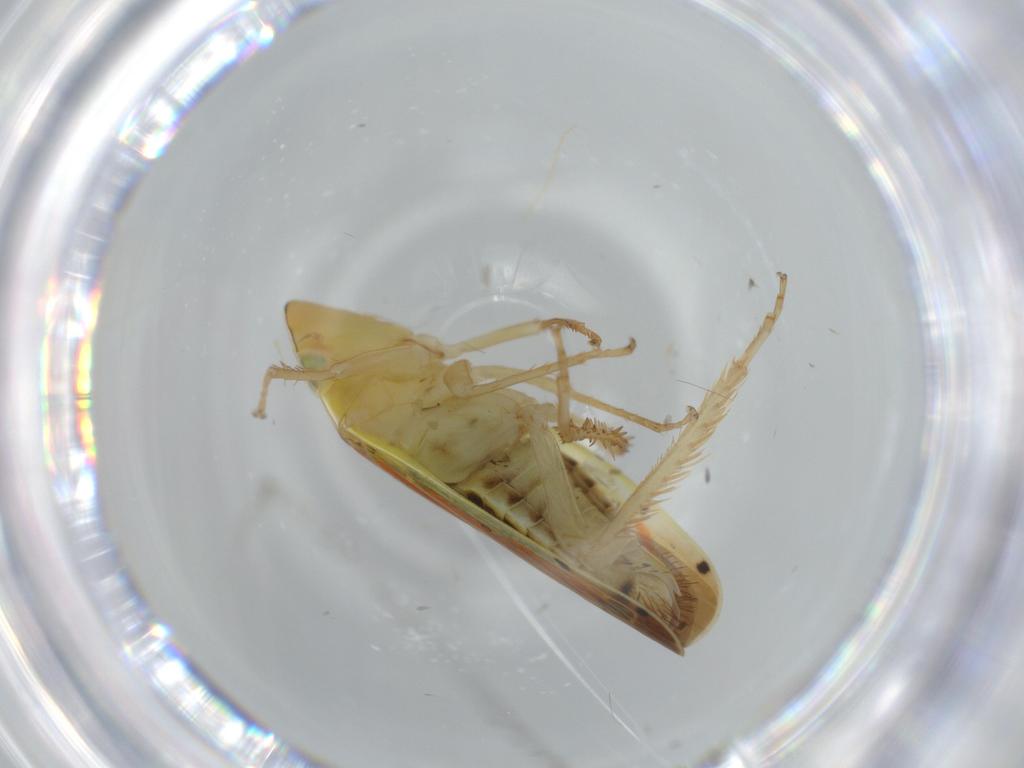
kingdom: Animalia
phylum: Arthropoda
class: Insecta
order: Hemiptera
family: Cicadellidae
